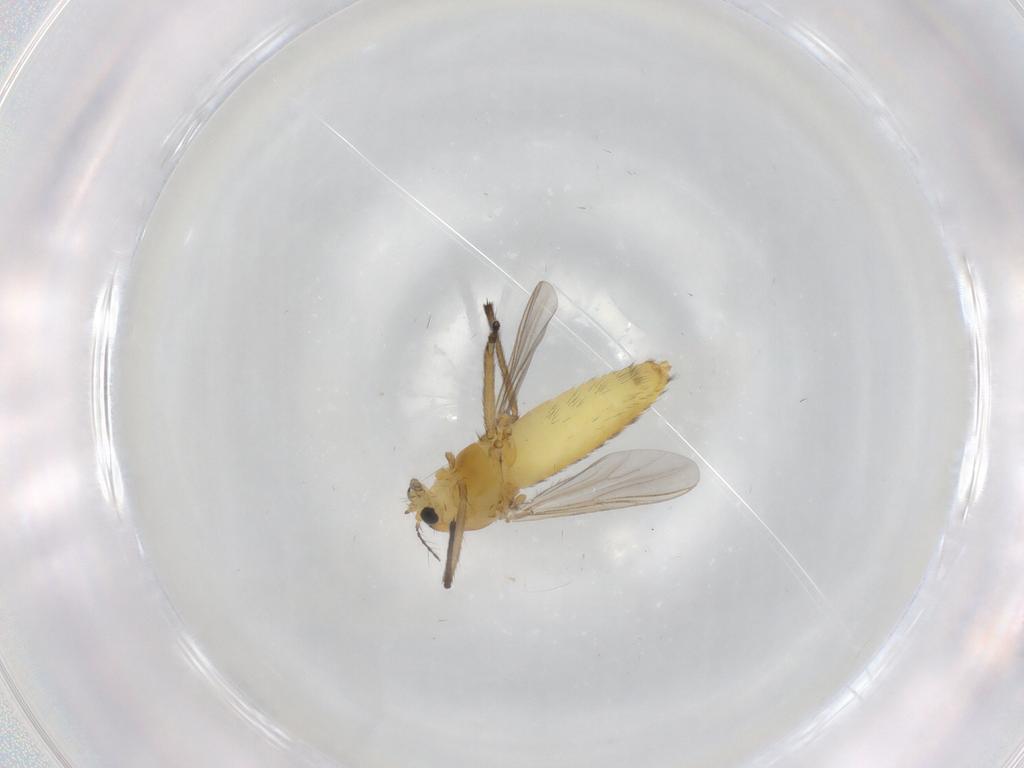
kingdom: Animalia
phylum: Arthropoda
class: Insecta
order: Diptera
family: Chironomidae
